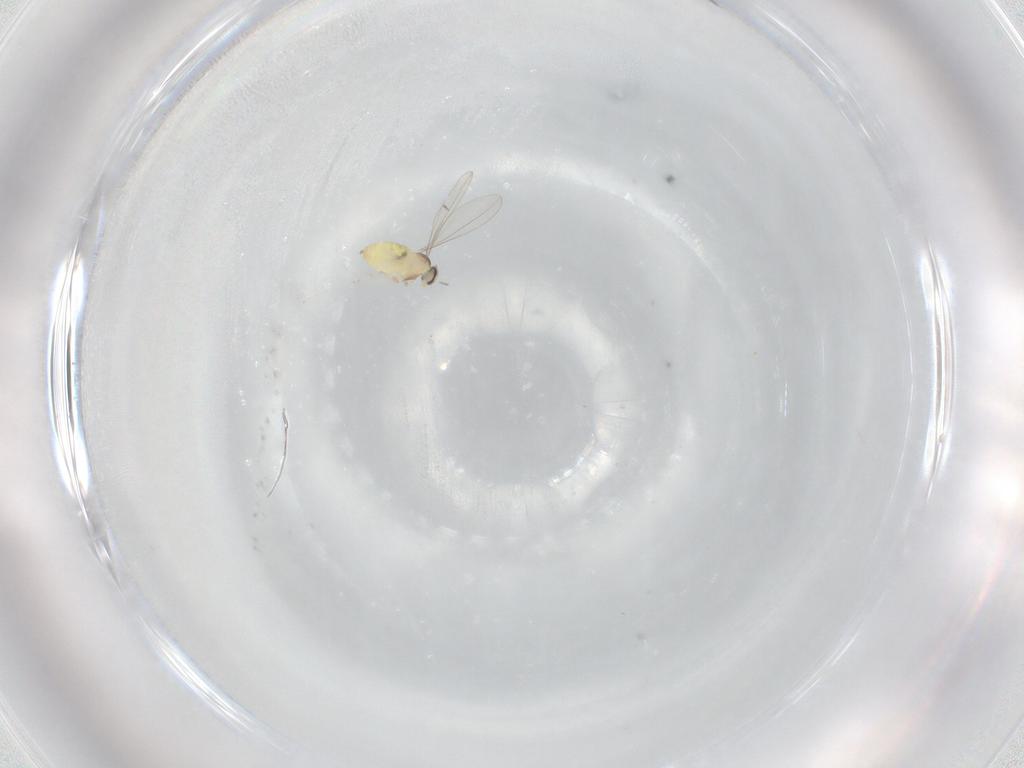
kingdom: Animalia
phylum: Arthropoda
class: Insecta
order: Diptera
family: Cecidomyiidae
